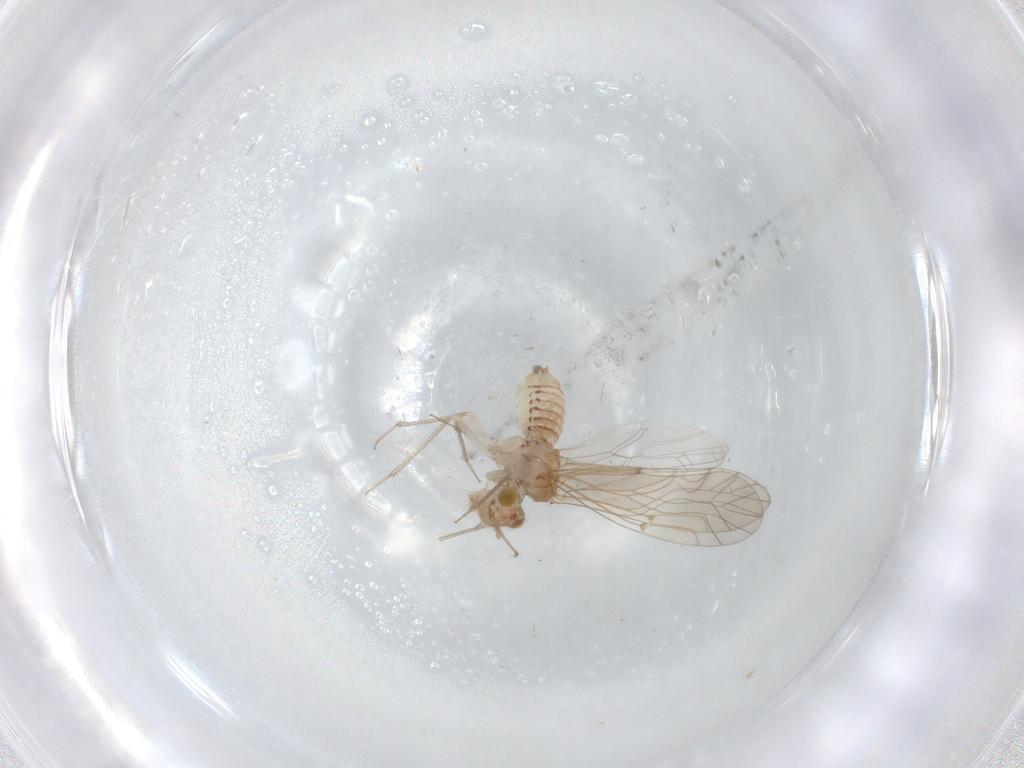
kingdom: Animalia
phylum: Arthropoda
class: Insecta
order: Psocodea
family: Lachesillidae
